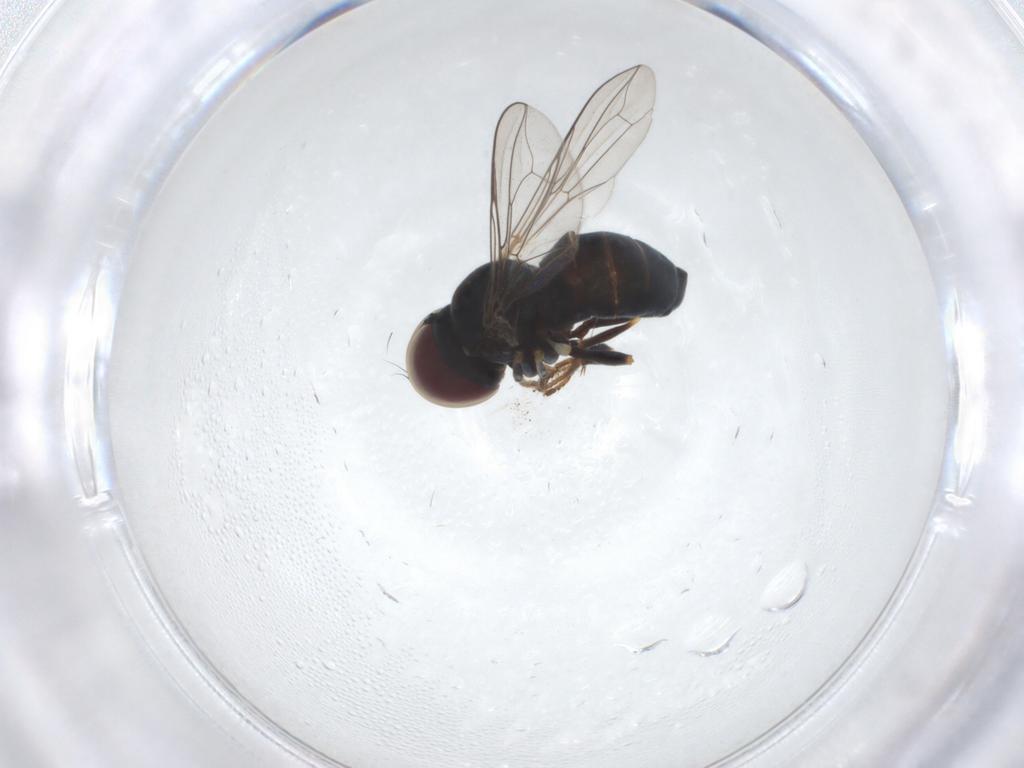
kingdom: Animalia
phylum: Arthropoda
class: Insecta
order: Diptera
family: Pipunculidae
